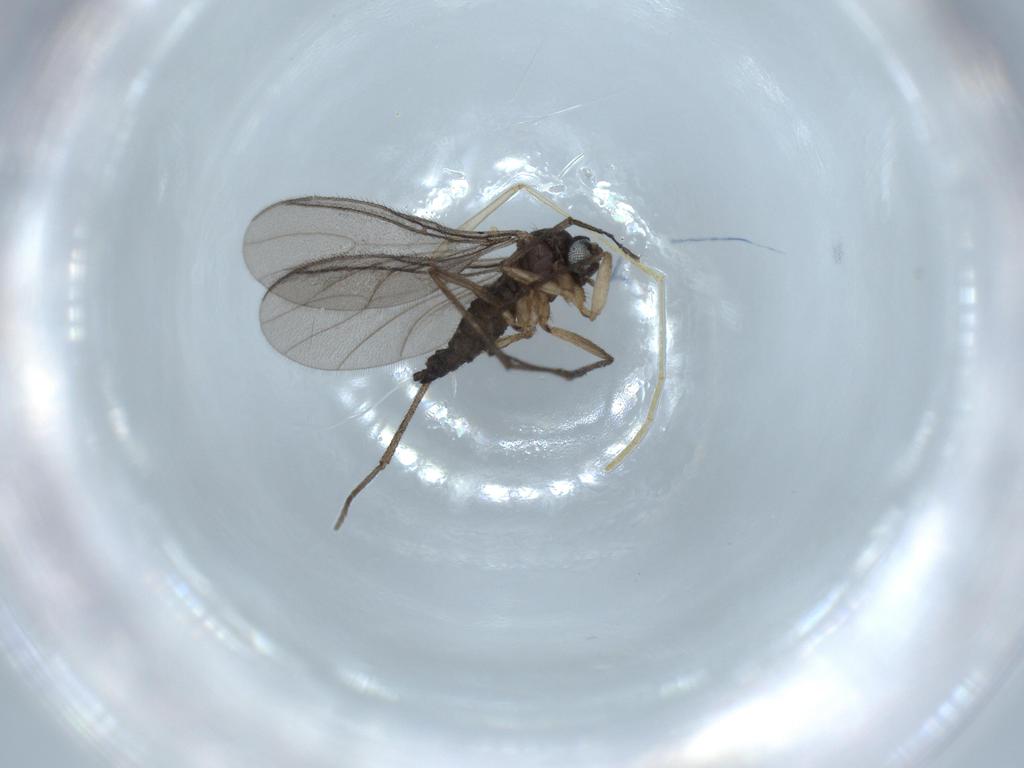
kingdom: Animalia
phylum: Arthropoda
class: Insecta
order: Diptera
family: Sciaridae
